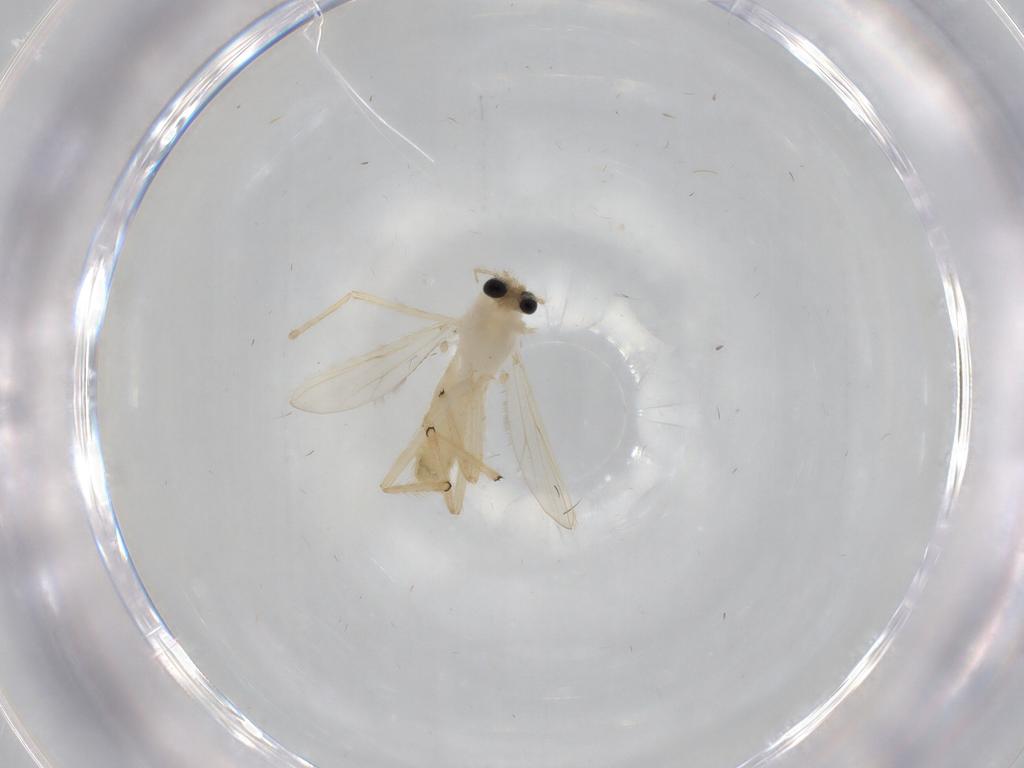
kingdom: Animalia
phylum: Arthropoda
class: Insecta
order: Diptera
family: Chironomidae
